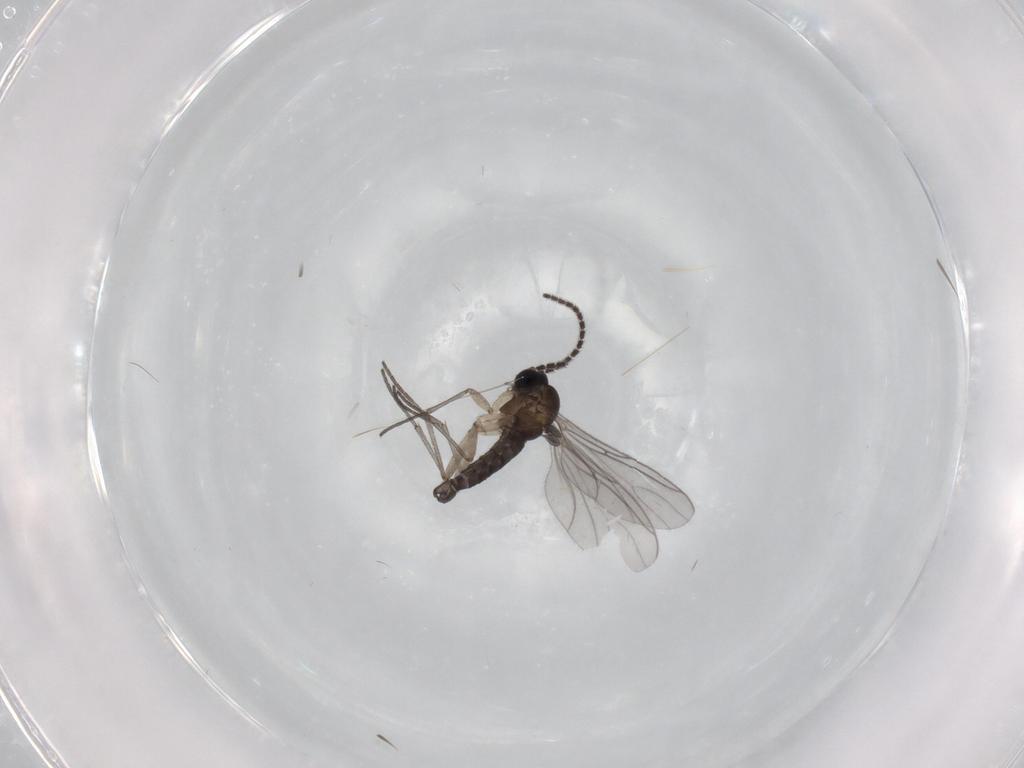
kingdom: Animalia
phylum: Arthropoda
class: Insecta
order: Diptera
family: Phoridae
